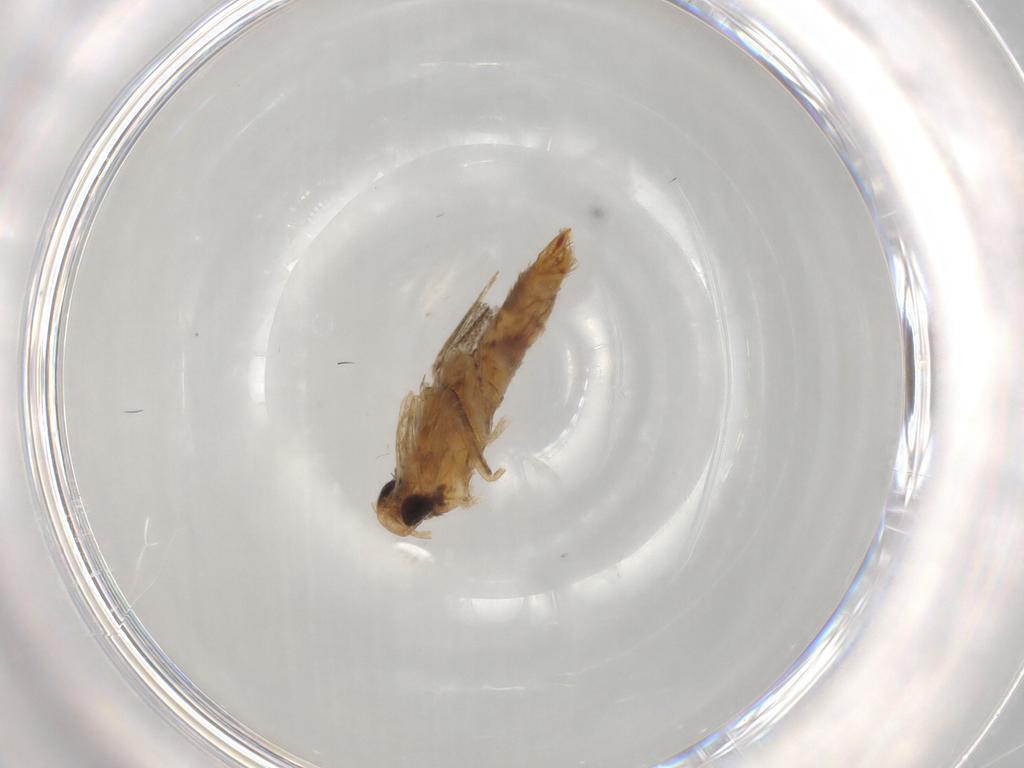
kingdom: Animalia
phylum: Arthropoda
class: Insecta
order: Lepidoptera
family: Gracillariidae
